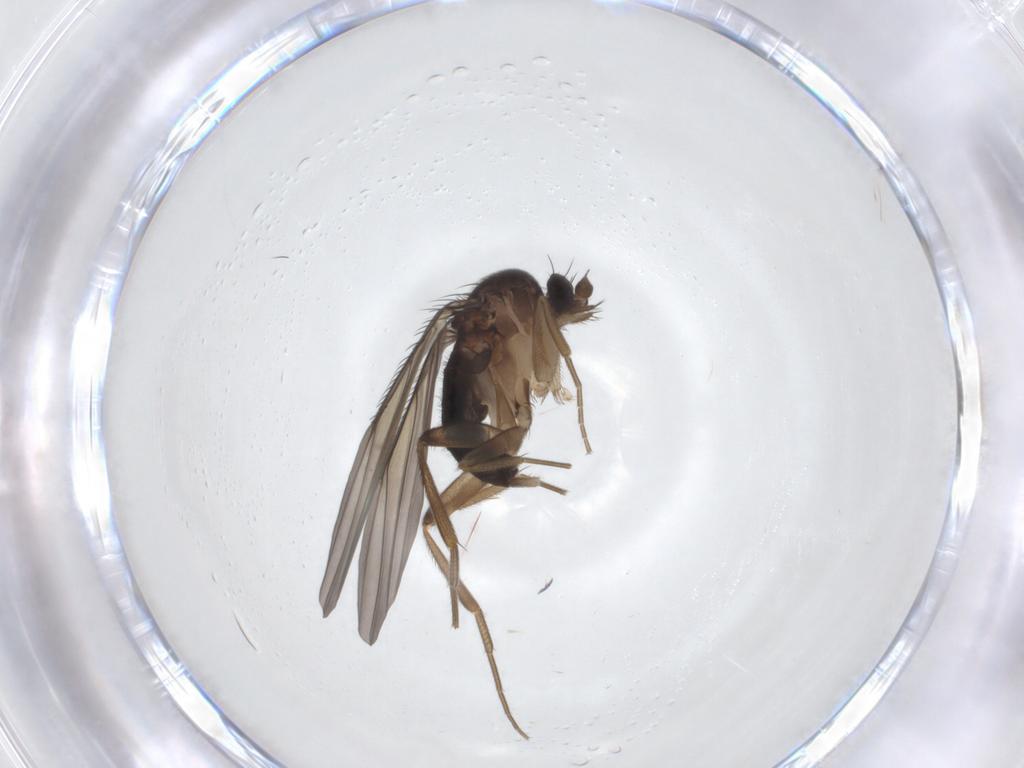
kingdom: Animalia
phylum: Arthropoda
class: Insecta
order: Diptera
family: Phoridae
